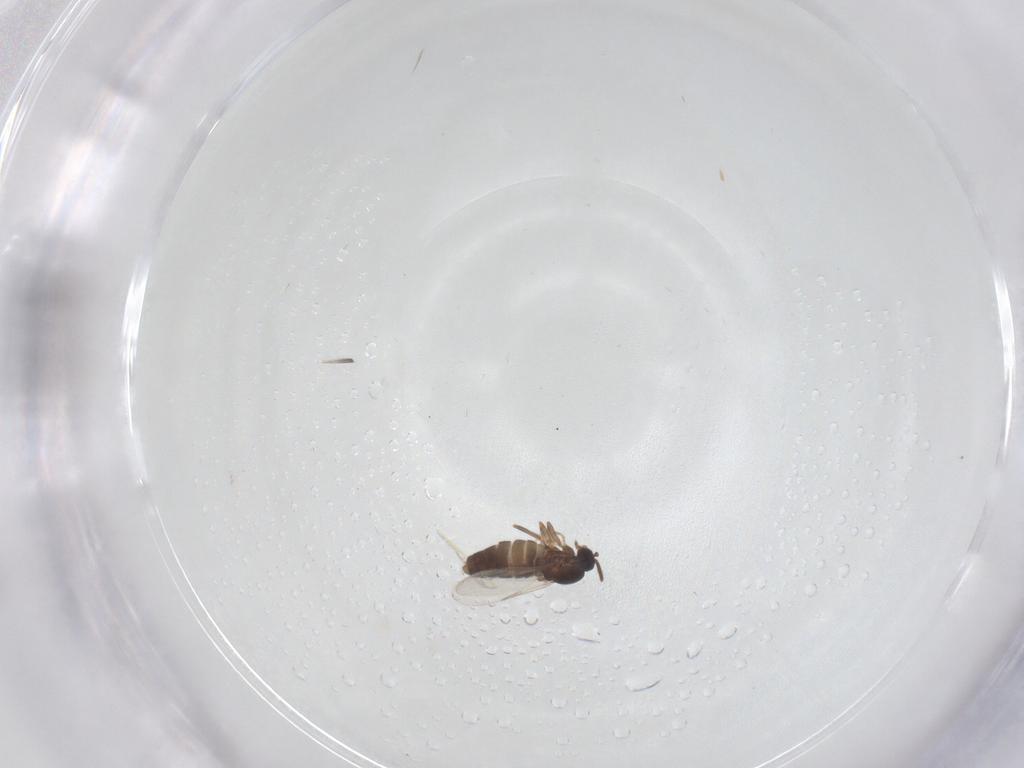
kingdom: Animalia
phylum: Arthropoda
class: Insecta
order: Diptera
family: Scatopsidae
